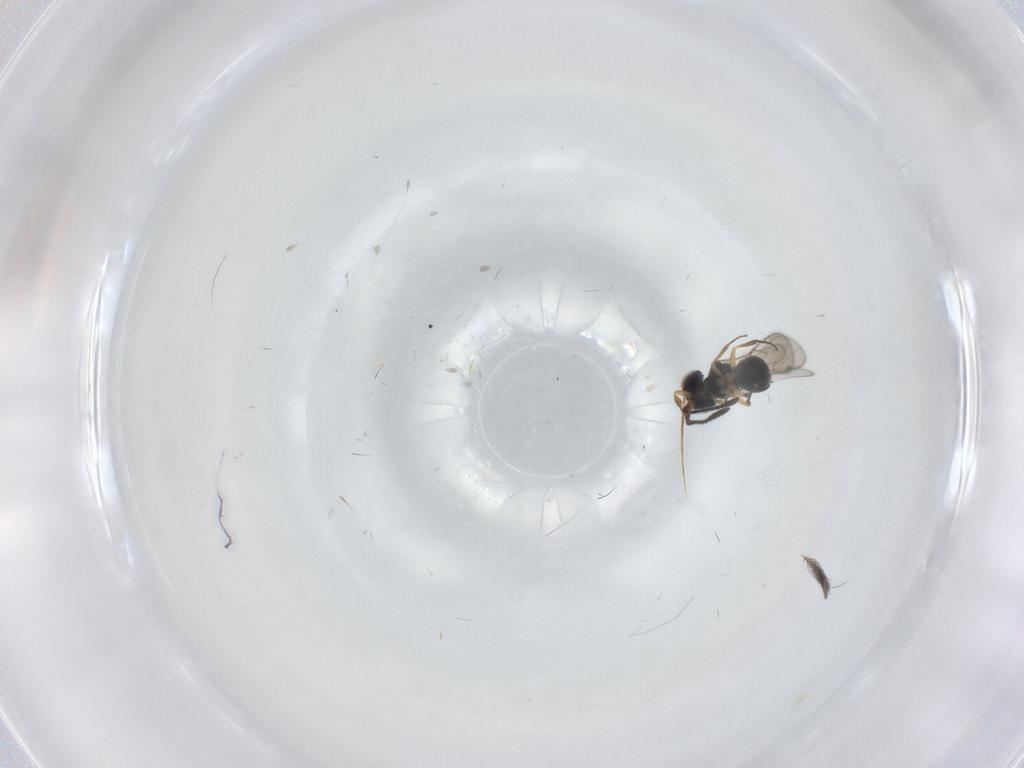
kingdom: Animalia
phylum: Arthropoda
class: Insecta
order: Hymenoptera
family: Scelionidae
